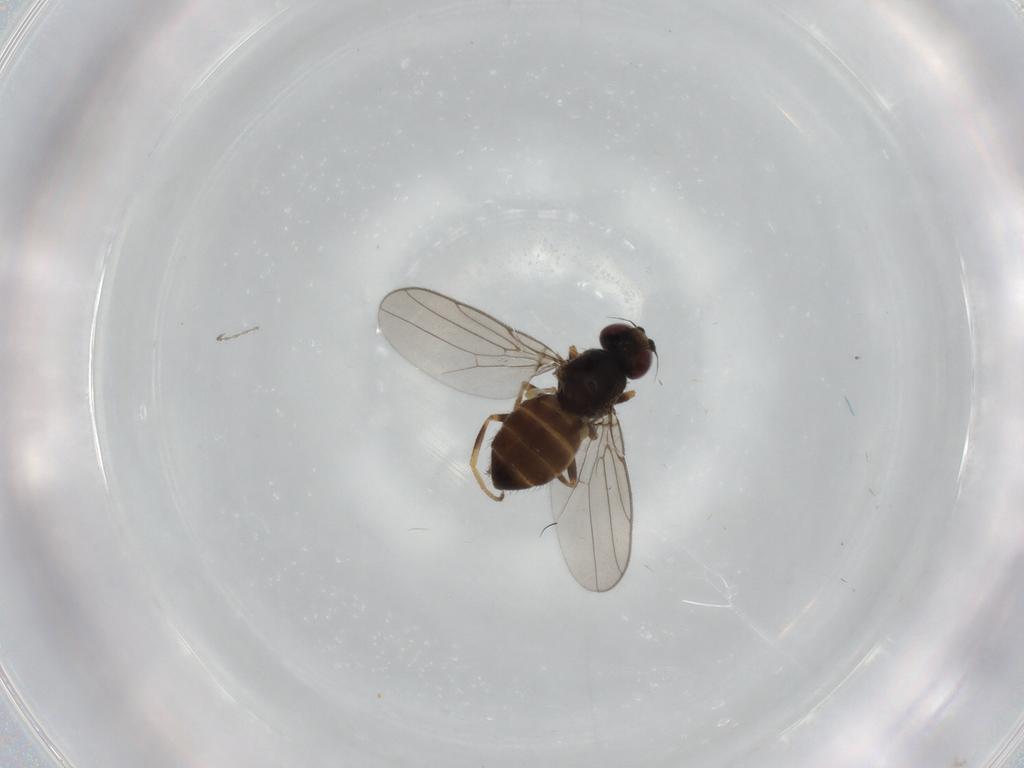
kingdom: Animalia
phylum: Arthropoda
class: Insecta
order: Diptera
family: Chloropidae
